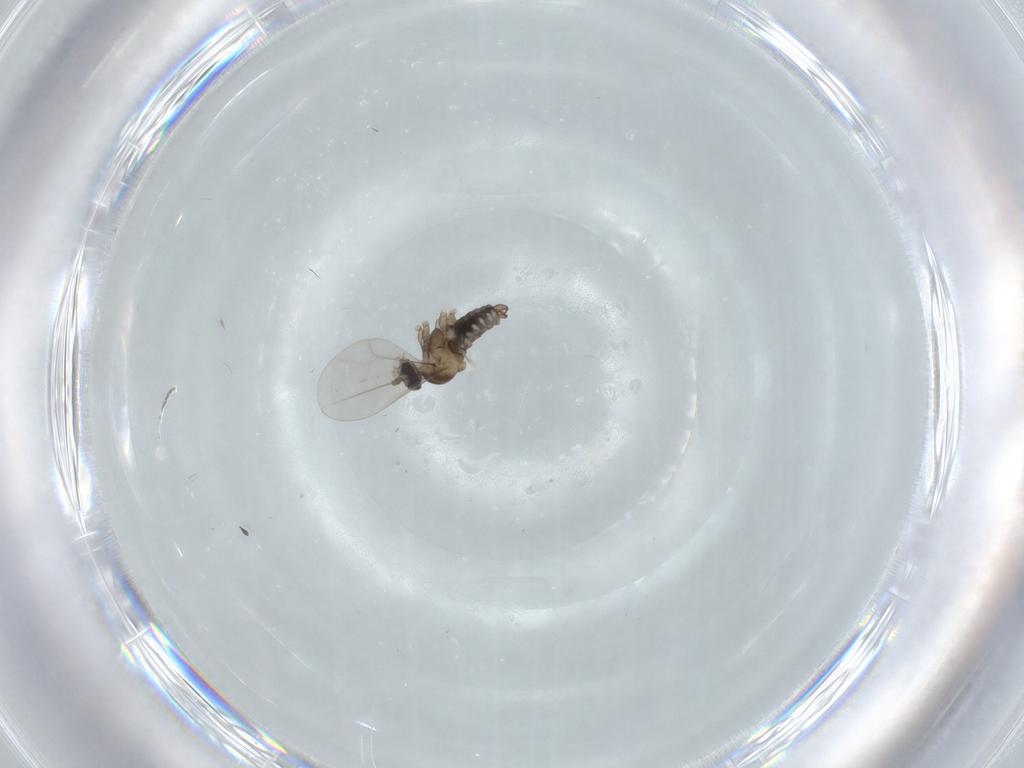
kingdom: Animalia
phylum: Arthropoda
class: Insecta
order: Diptera
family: Cecidomyiidae
